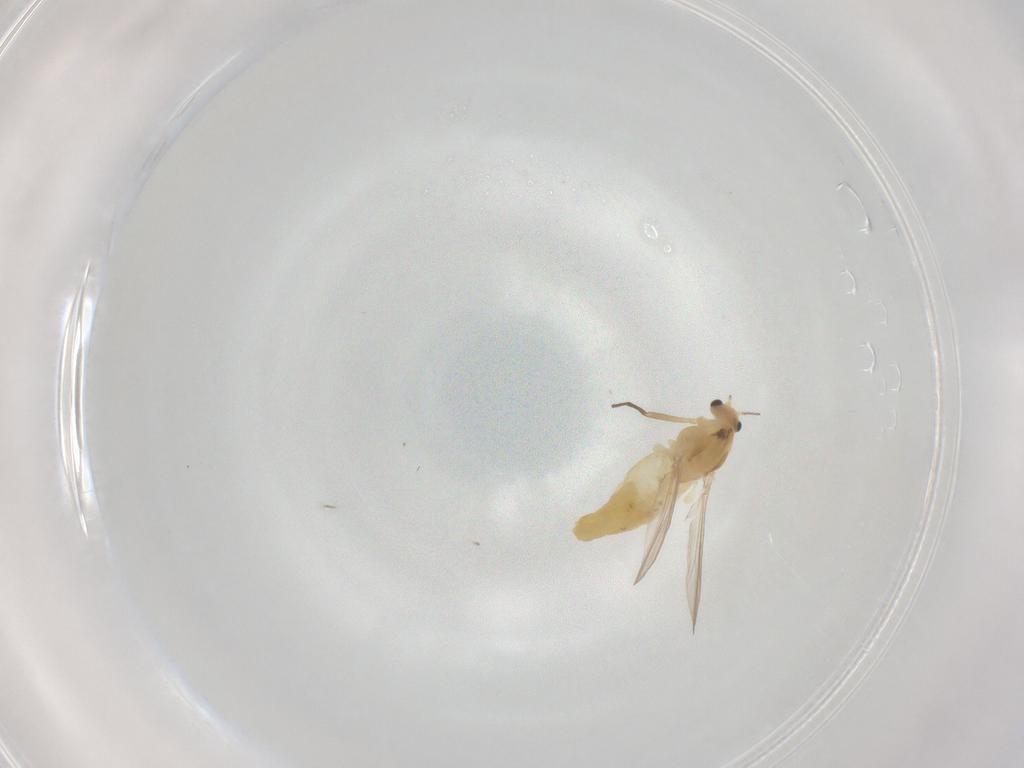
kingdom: Animalia
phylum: Arthropoda
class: Insecta
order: Diptera
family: Chironomidae
